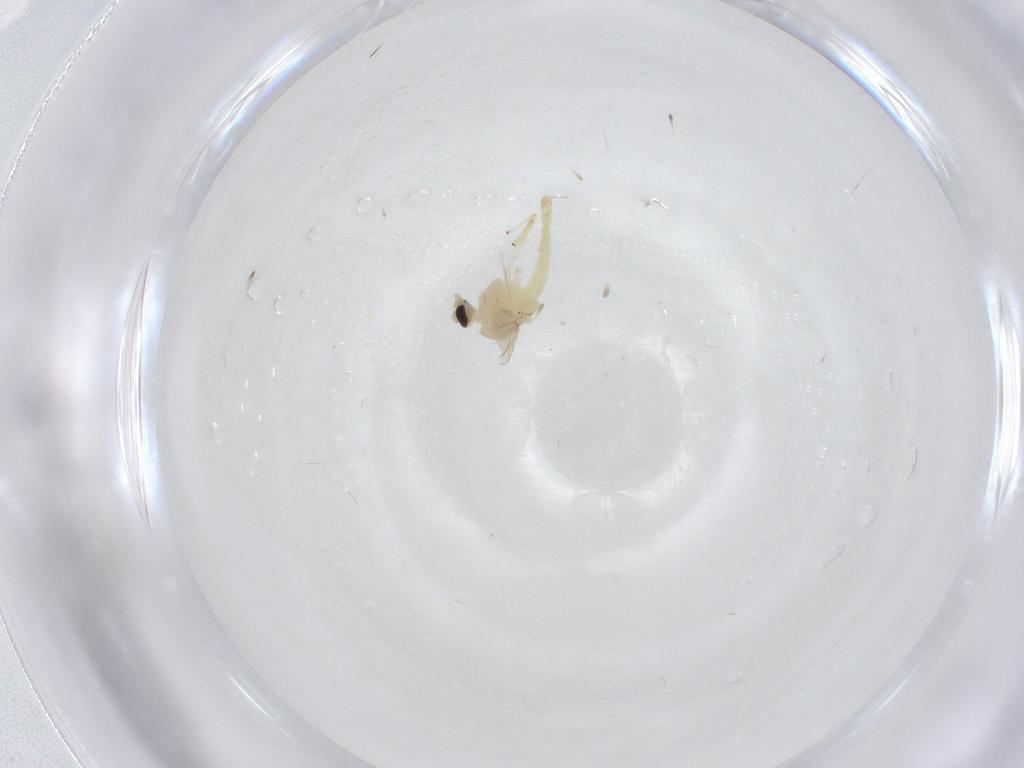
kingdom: Animalia
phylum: Arthropoda
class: Insecta
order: Diptera
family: Chironomidae
